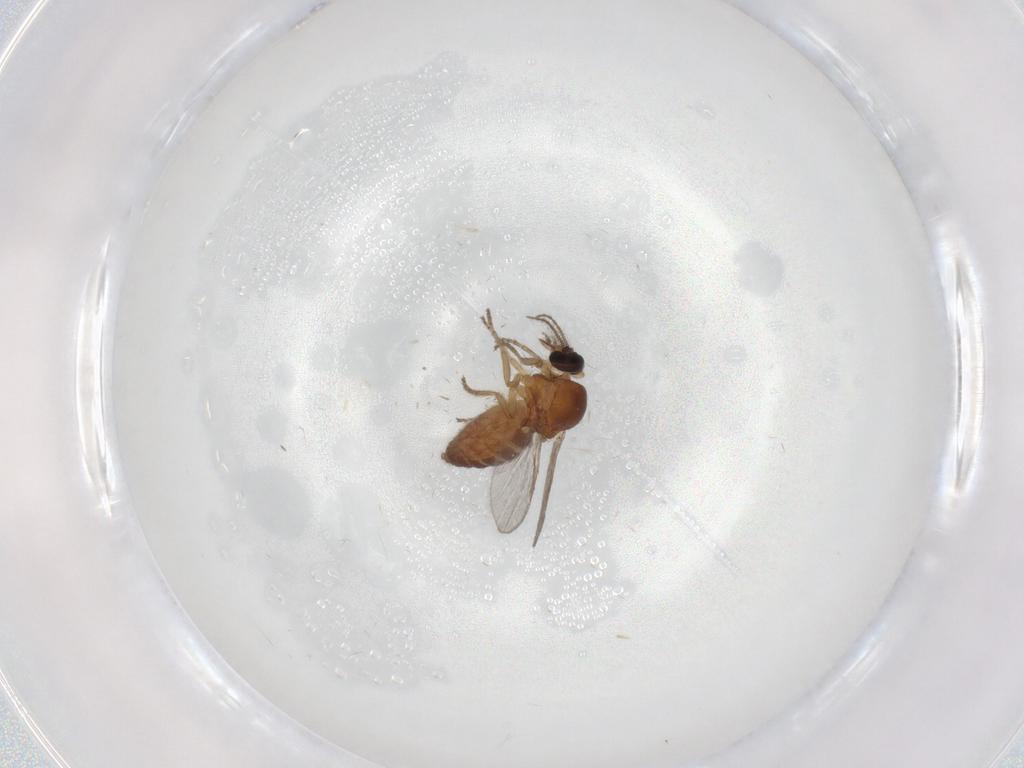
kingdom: Animalia
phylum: Arthropoda
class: Insecta
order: Diptera
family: Ceratopogonidae
